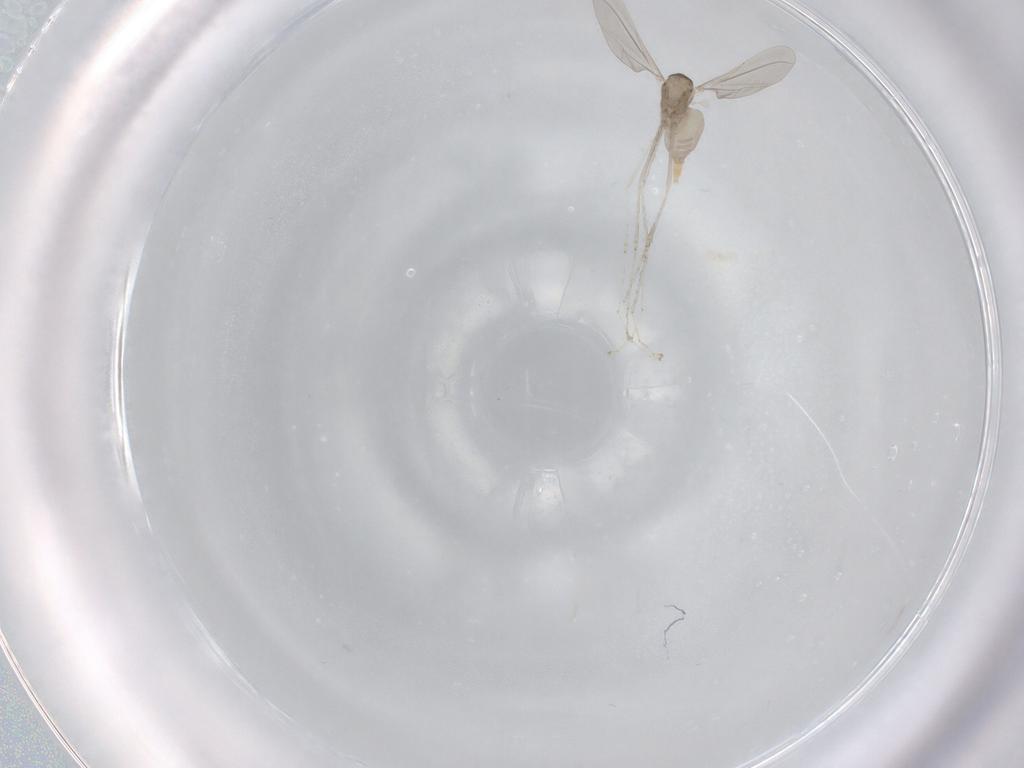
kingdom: Animalia
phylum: Arthropoda
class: Insecta
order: Diptera
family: Cecidomyiidae
